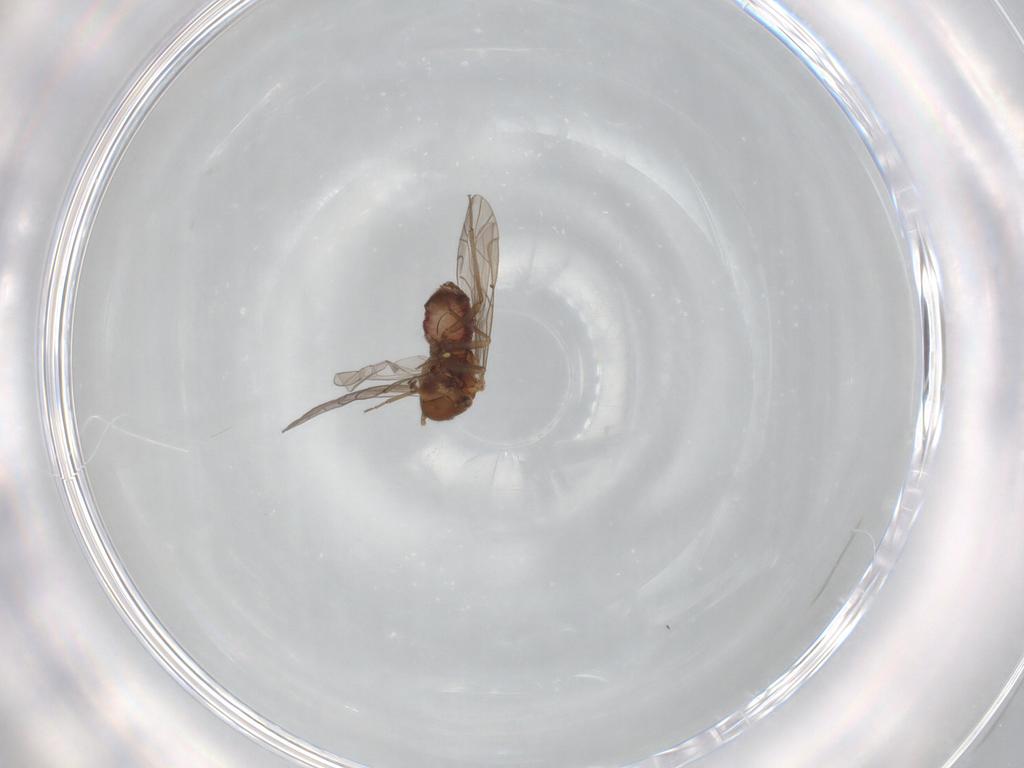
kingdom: Animalia
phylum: Arthropoda
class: Insecta
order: Psocodea
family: Lachesillidae
